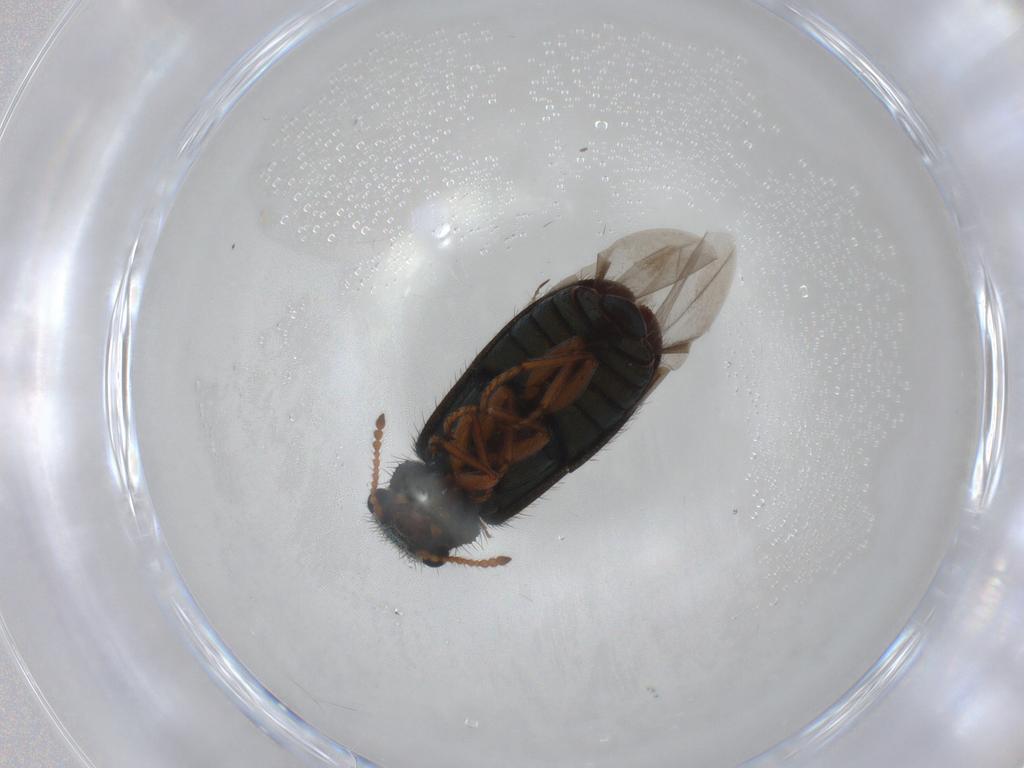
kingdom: Animalia
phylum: Arthropoda
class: Insecta
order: Coleoptera
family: Melyridae
